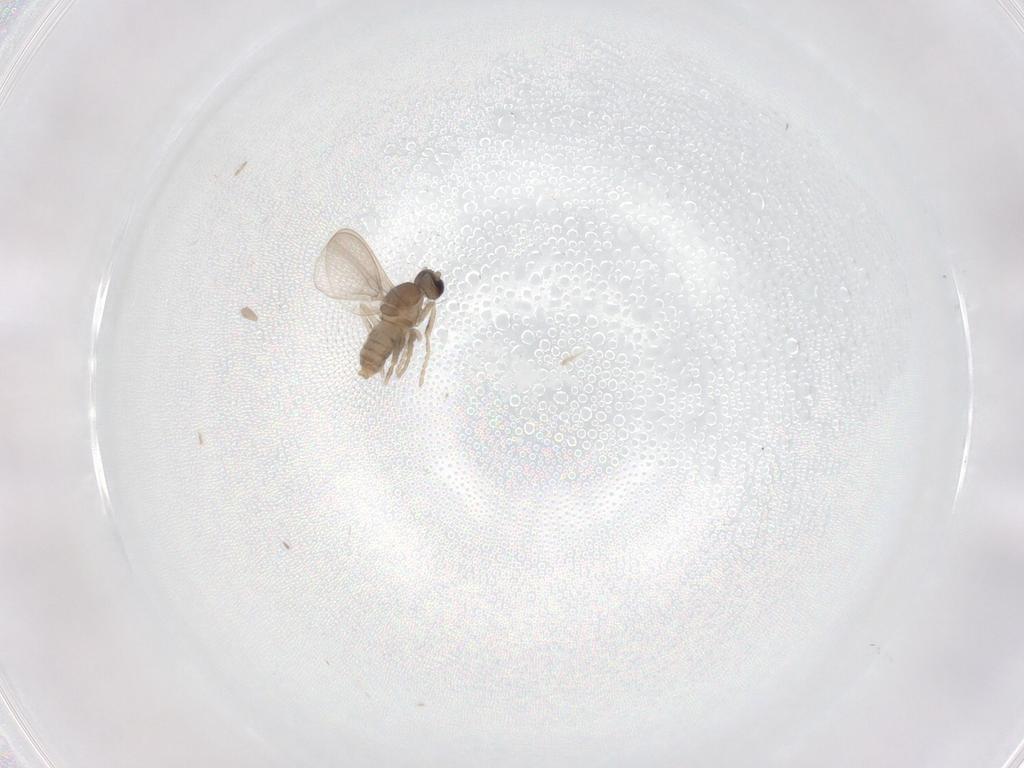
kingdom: Animalia
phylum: Arthropoda
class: Insecta
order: Diptera
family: Cecidomyiidae
